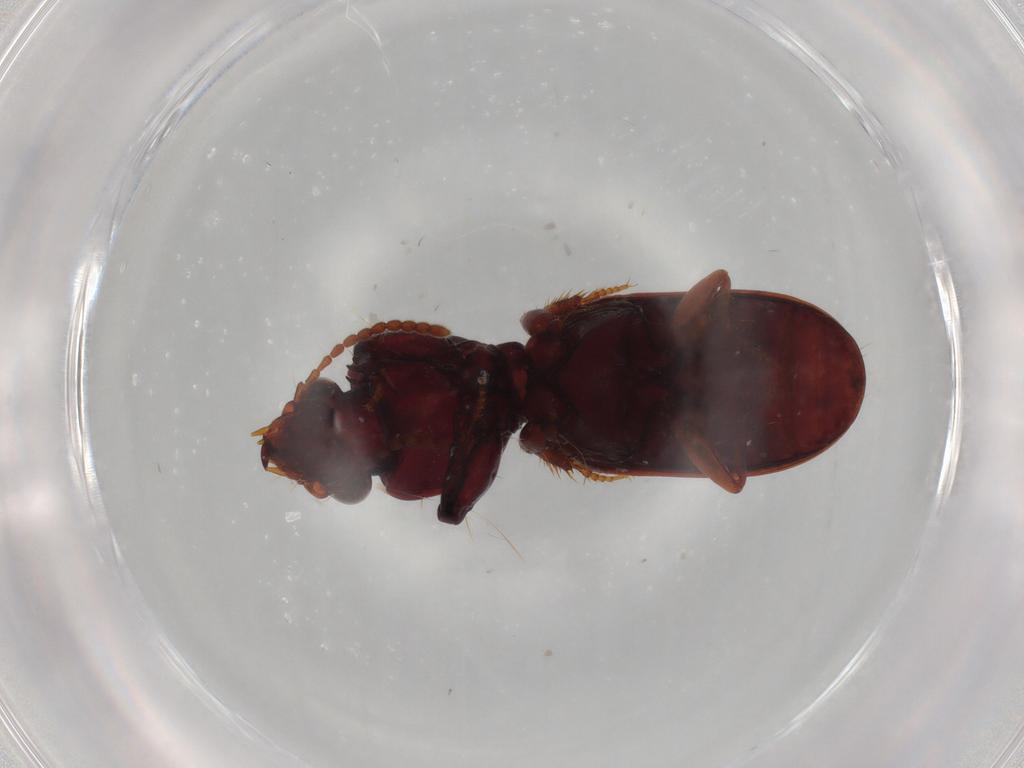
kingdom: Animalia
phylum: Arthropoda
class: Insecta
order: Coleoptera
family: Carabidae
